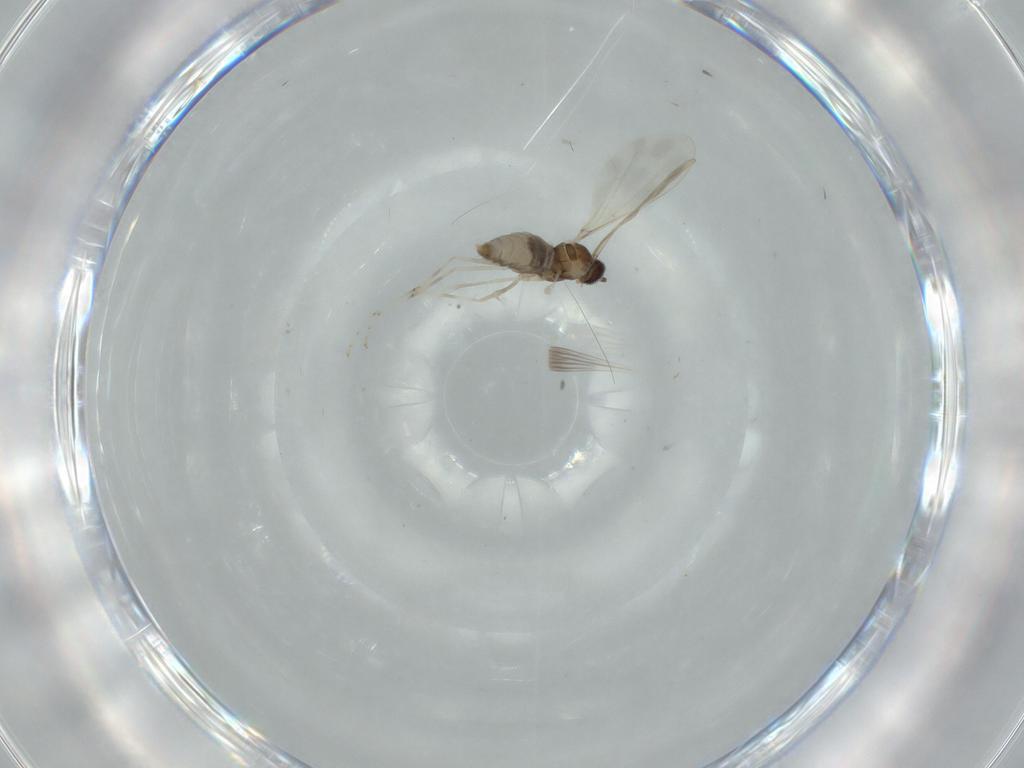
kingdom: Animalia
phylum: Arthropoda
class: Insecta
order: Diptera
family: Cecidomyiidae
